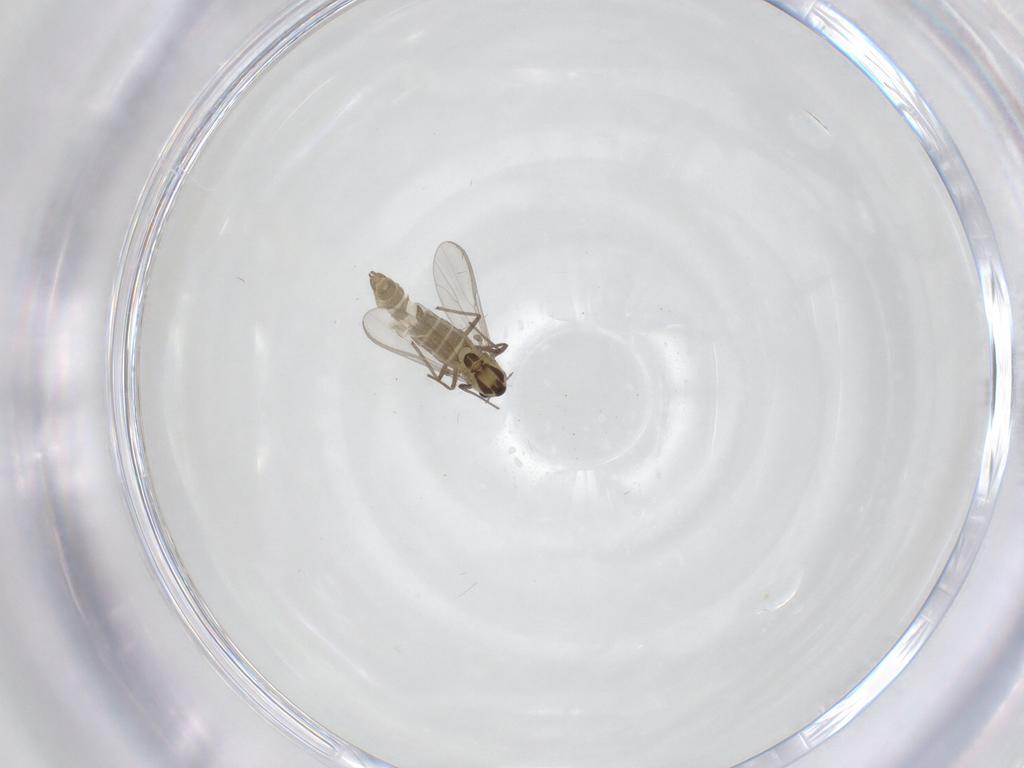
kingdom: Animalia
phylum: Arthropoda
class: Insecta
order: Diptera
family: Chironomidae
